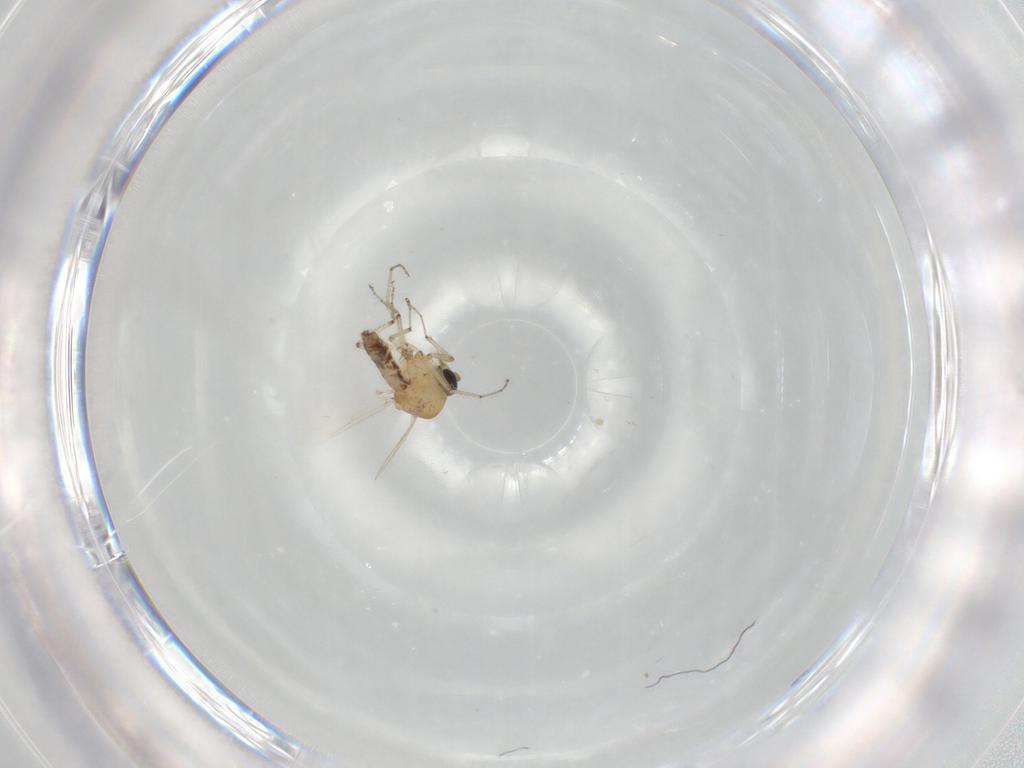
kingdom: Animalia
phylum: Arthropoda
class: Insecta
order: Diptera
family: Ceratopogonidae
